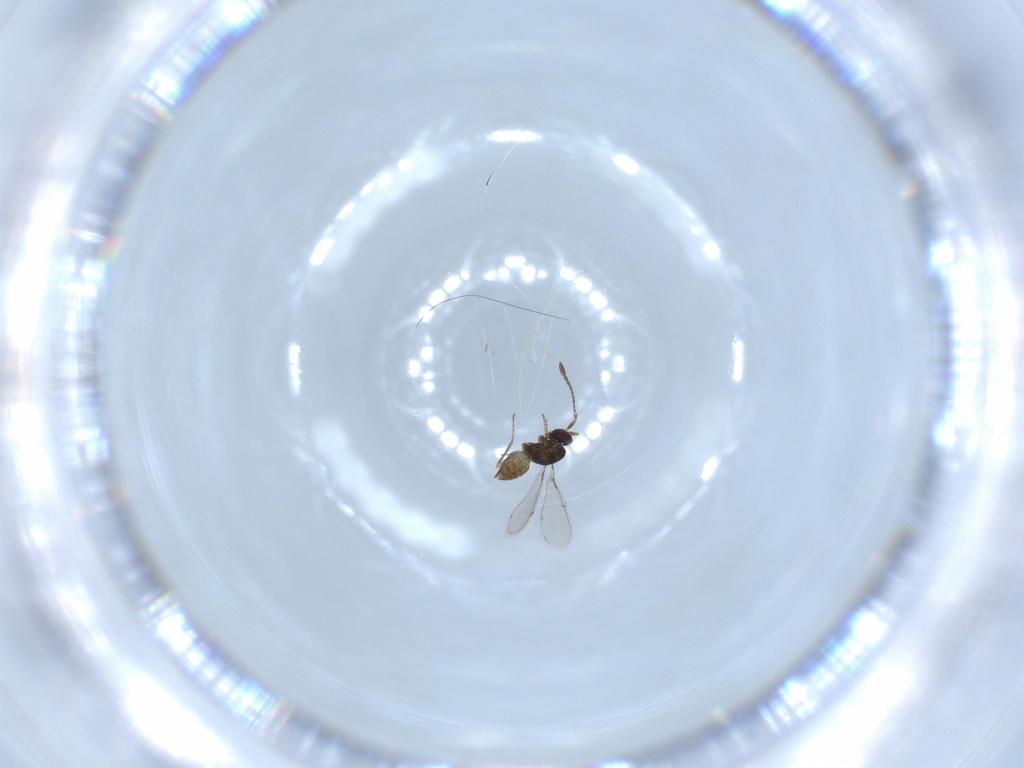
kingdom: Animalia
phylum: Arthropoda
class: Insecta
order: Hymenoptera
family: Mymaridae
